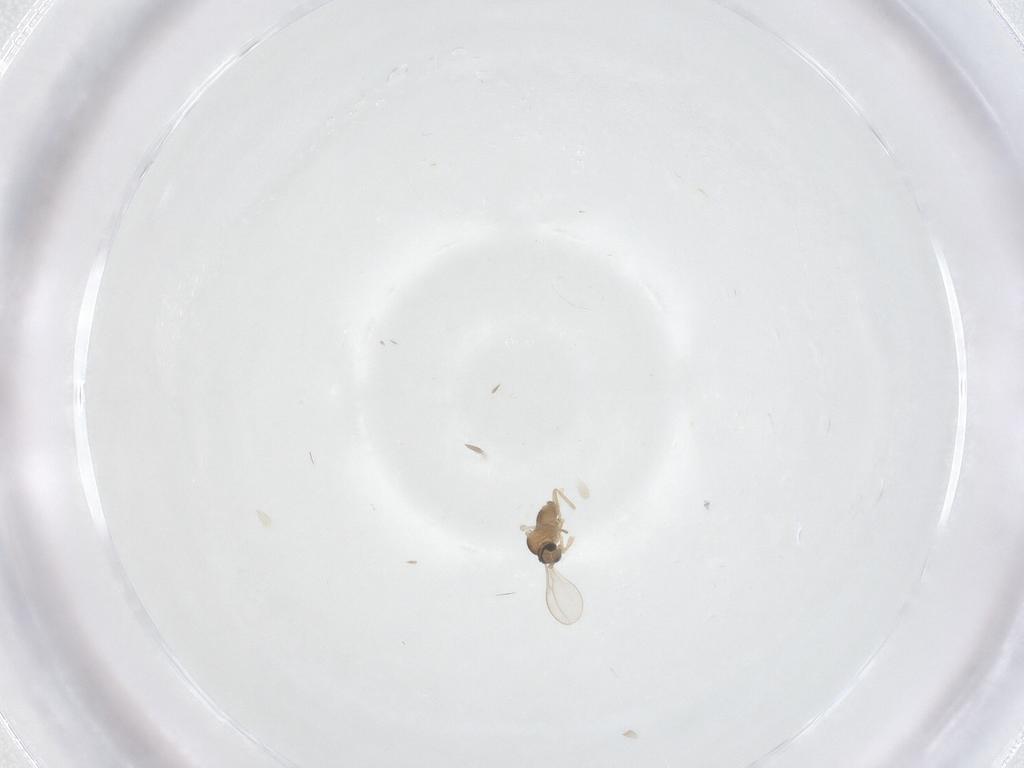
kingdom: Animalia
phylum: Arthropoda
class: Insecta
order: Diptera
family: Cecidomyiidae
